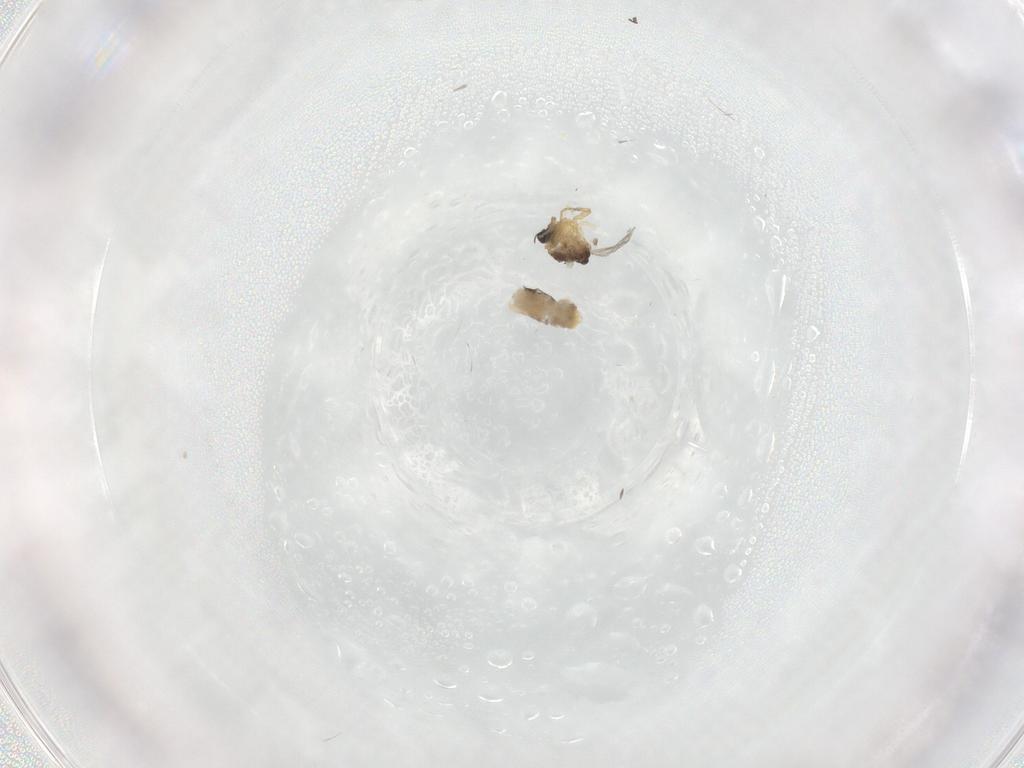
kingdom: Animalia
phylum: Arthropoda
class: Insecta
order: Diptera
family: Ceratopogonidae
